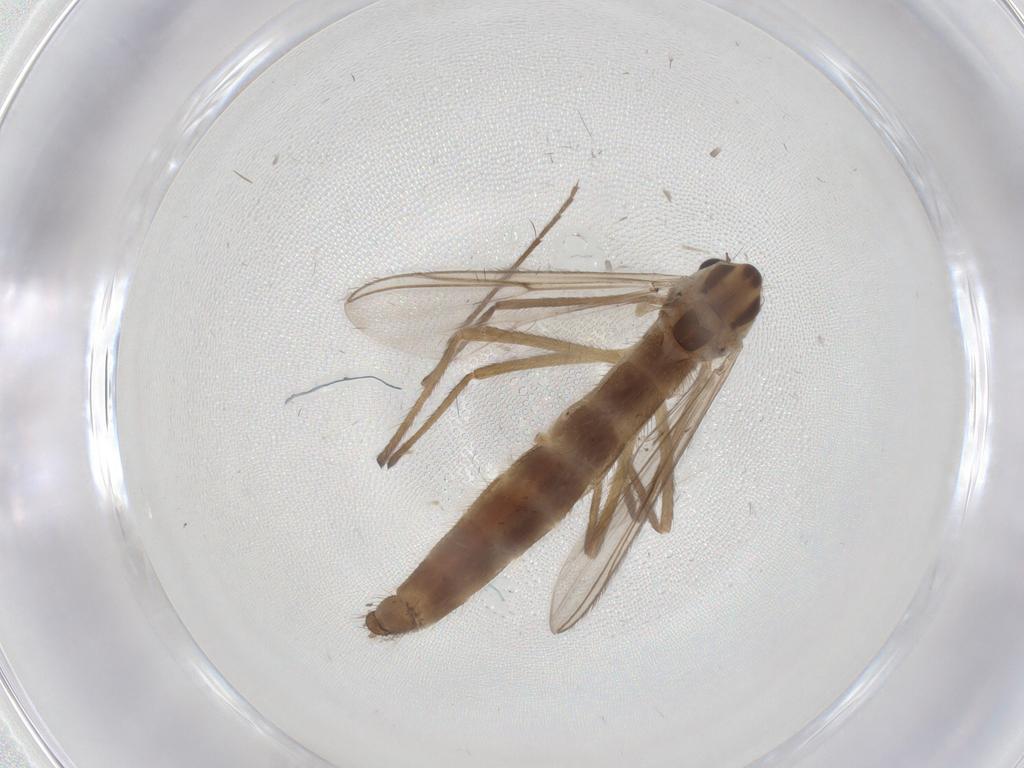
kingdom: Animalia
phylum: Arthropoda
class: Insecta
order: Diptera
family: Chironomidae
